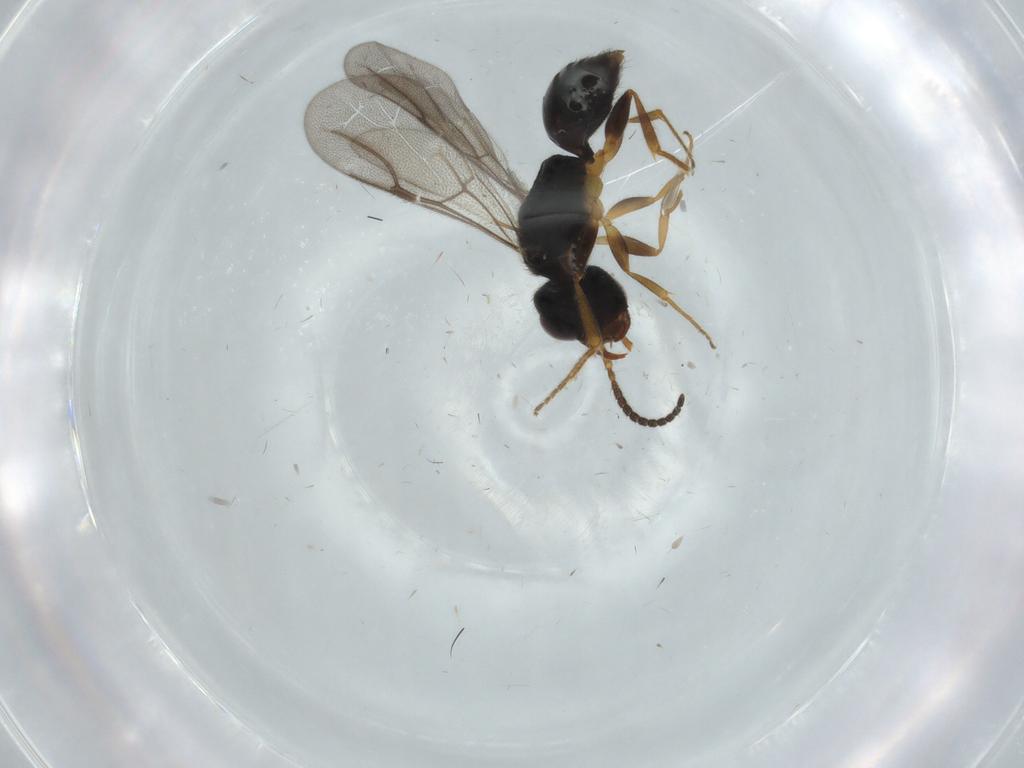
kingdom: Animalia
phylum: Arthropoda
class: Insecta
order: Hymenoptera
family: Bethylidae
